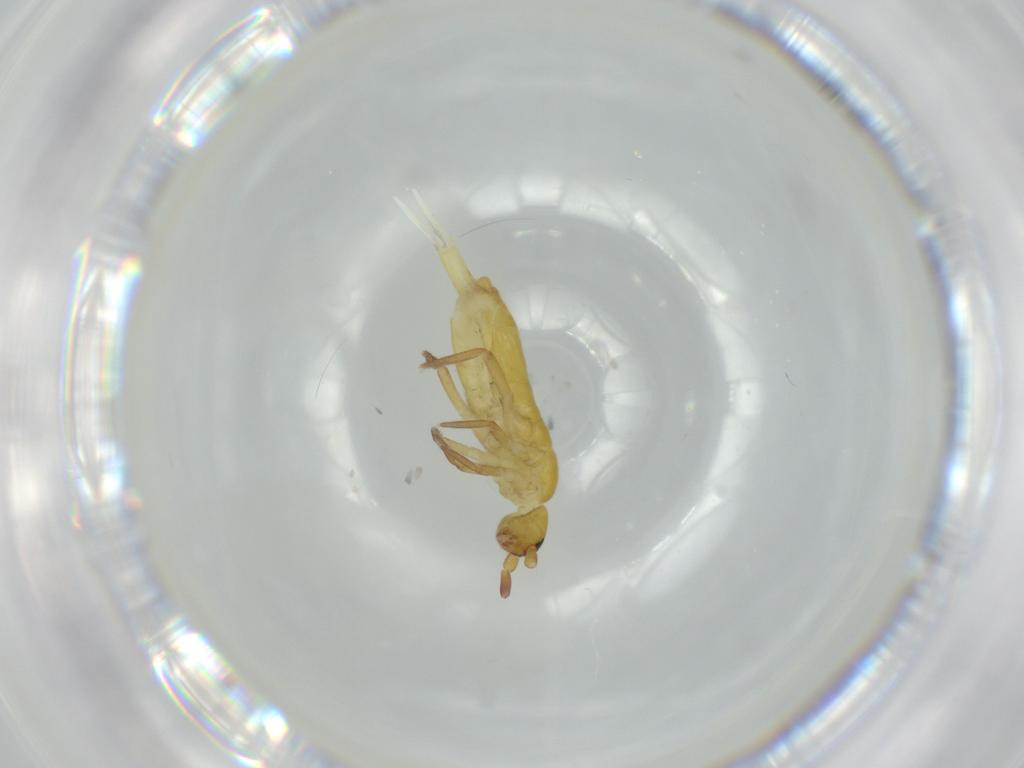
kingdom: Animalia
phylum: Arthropoda
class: Collembola
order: Entomobryomorpha
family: Tomoceridae
